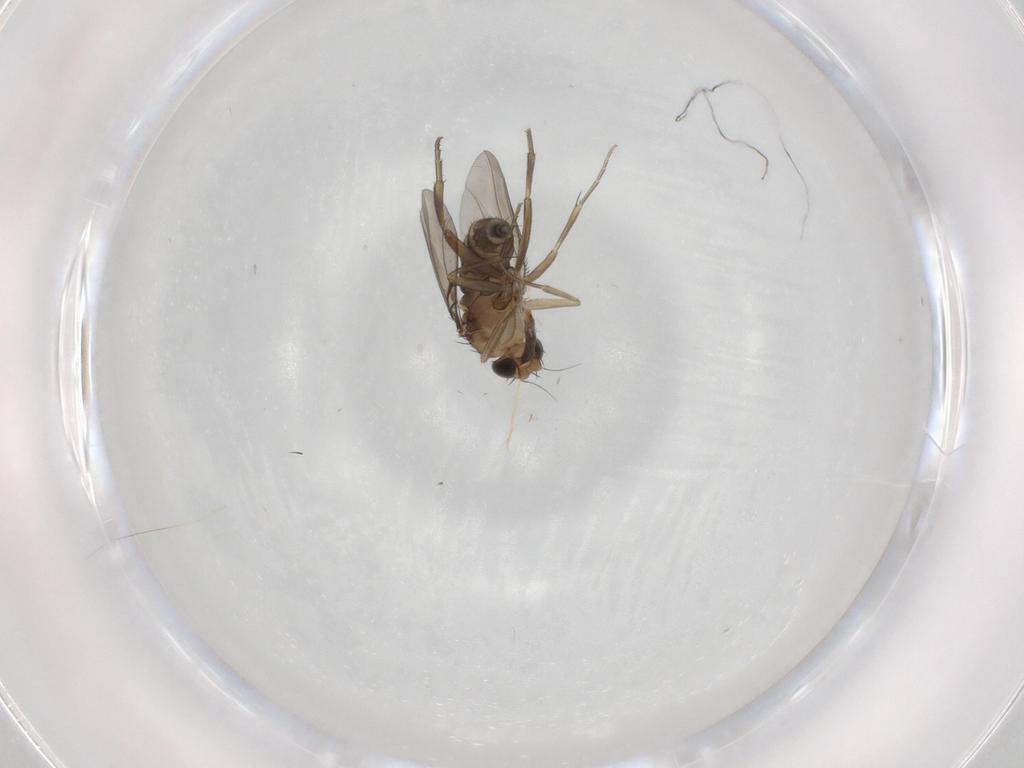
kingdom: Animalia
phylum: Arthropoda
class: Insecta
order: Diptera
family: Phoridae
